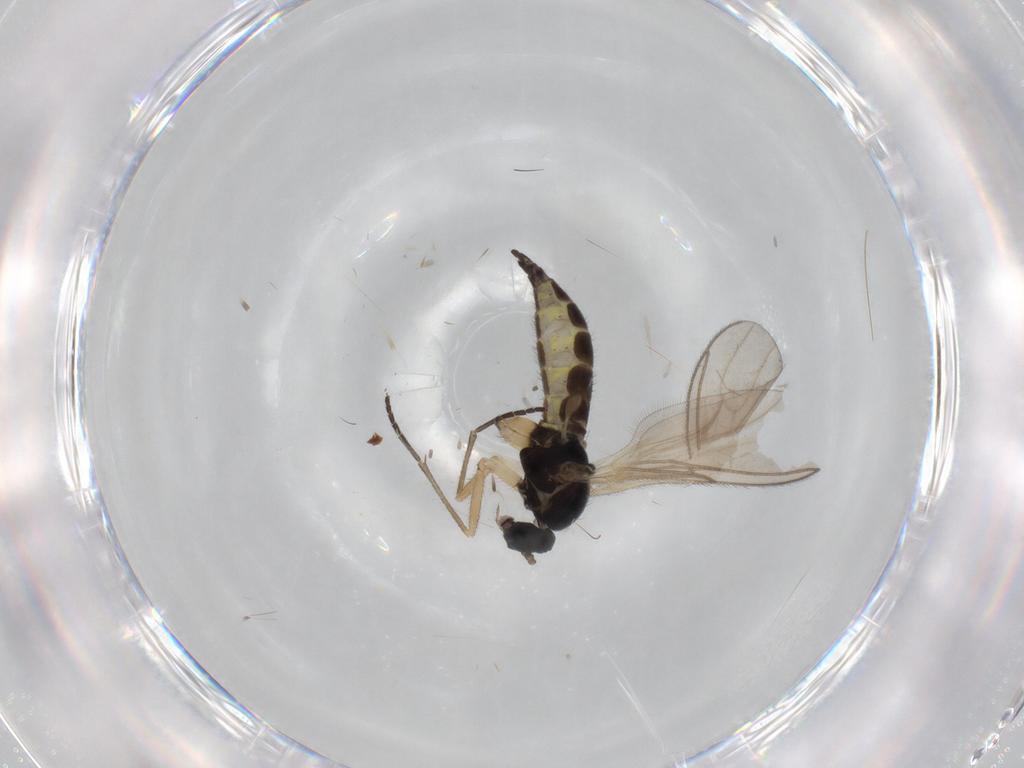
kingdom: Animalia
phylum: Arthropoda
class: Insecta
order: Diptera
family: Sciaridae
